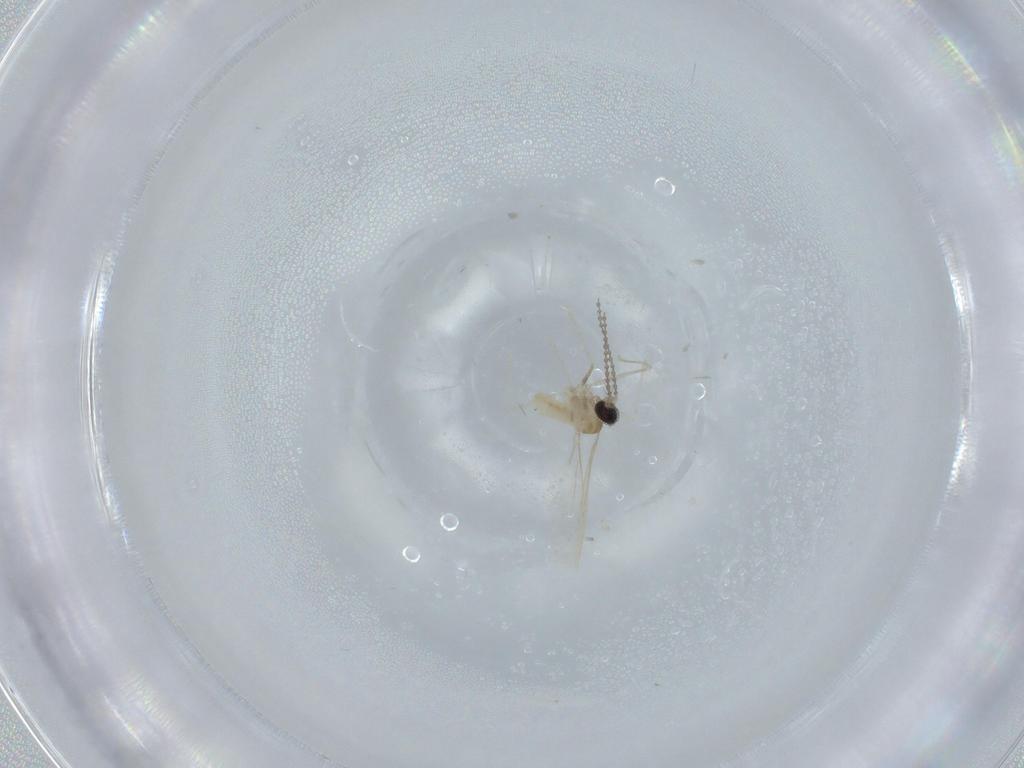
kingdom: Animalia
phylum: Arthropoda
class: Insecta
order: Diptera
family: Cecidomyiidae
